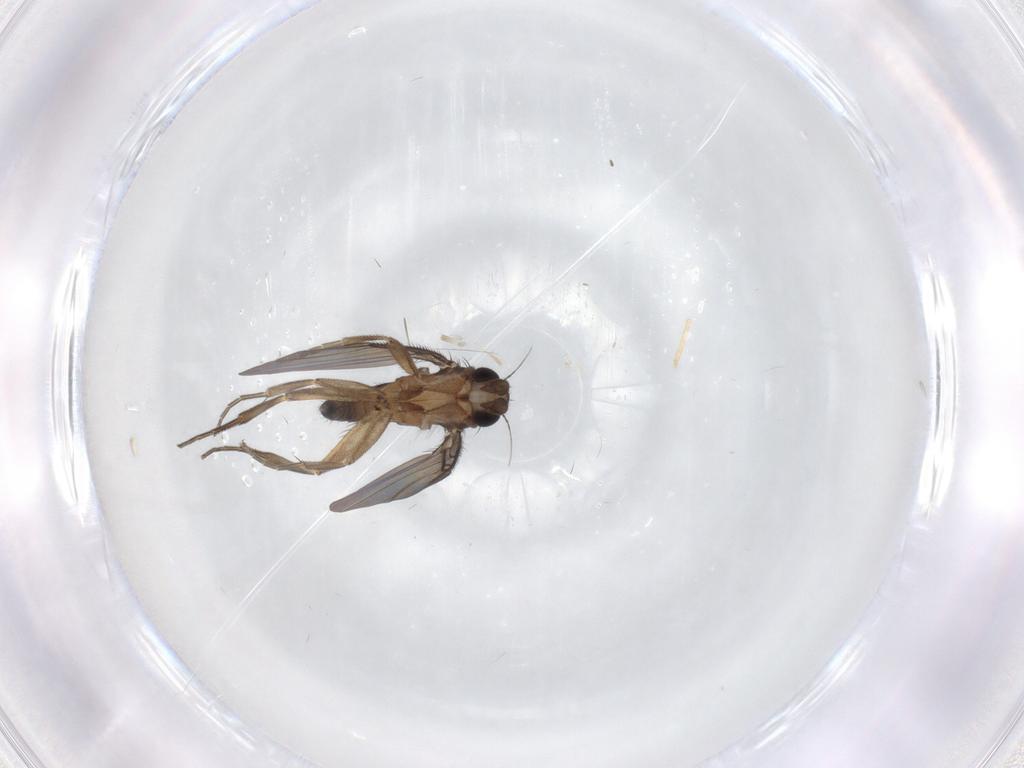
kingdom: Animalia
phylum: Arthropoda
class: Insecta
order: Diptera
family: Phoridae
